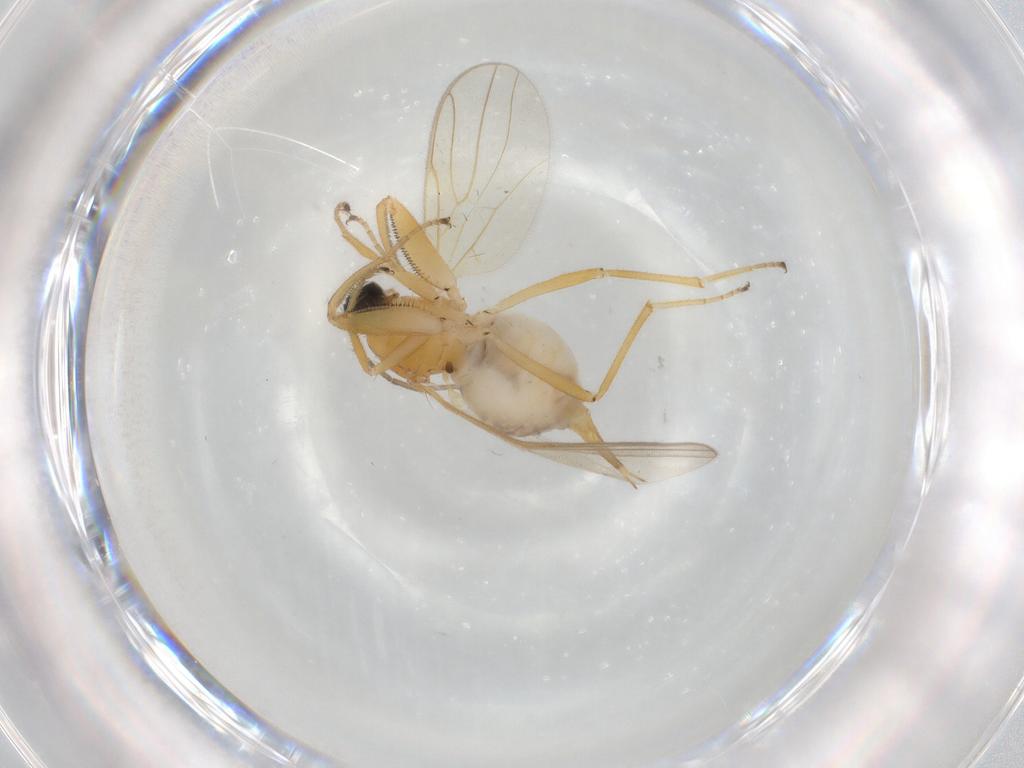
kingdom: Animalia
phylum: Arthropoda
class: Insecta
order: Diptera
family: Hybotidae
